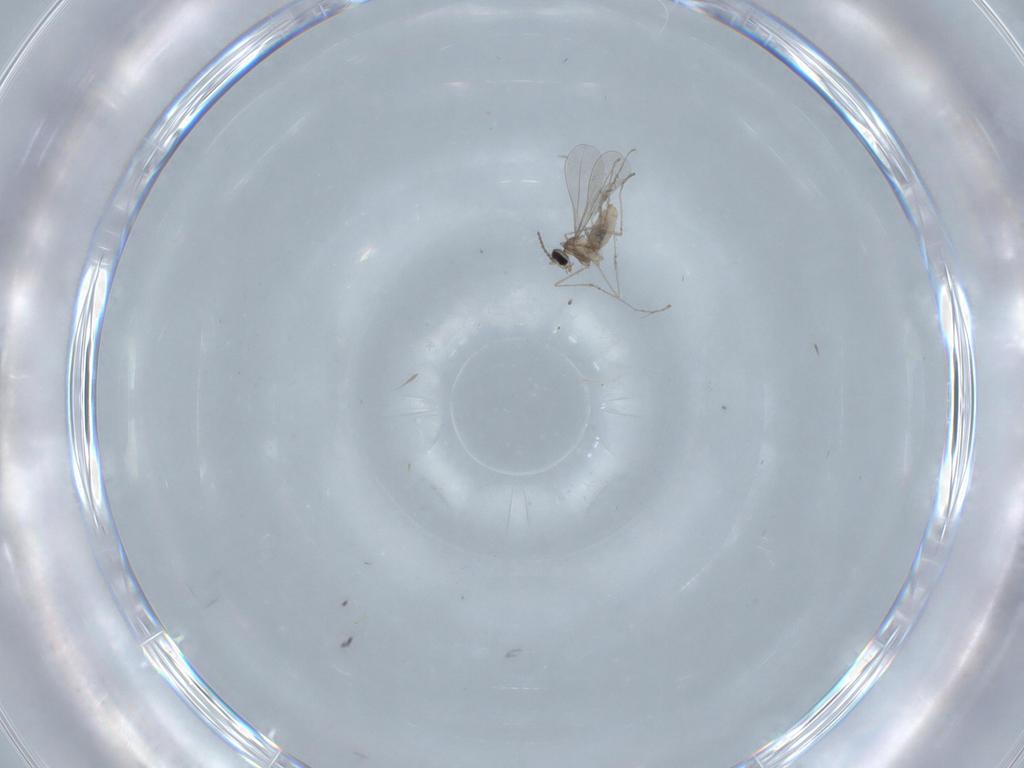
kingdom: Animalia
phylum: Arthropoda
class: Insecta
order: Diptera
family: Cecidomyiidae
